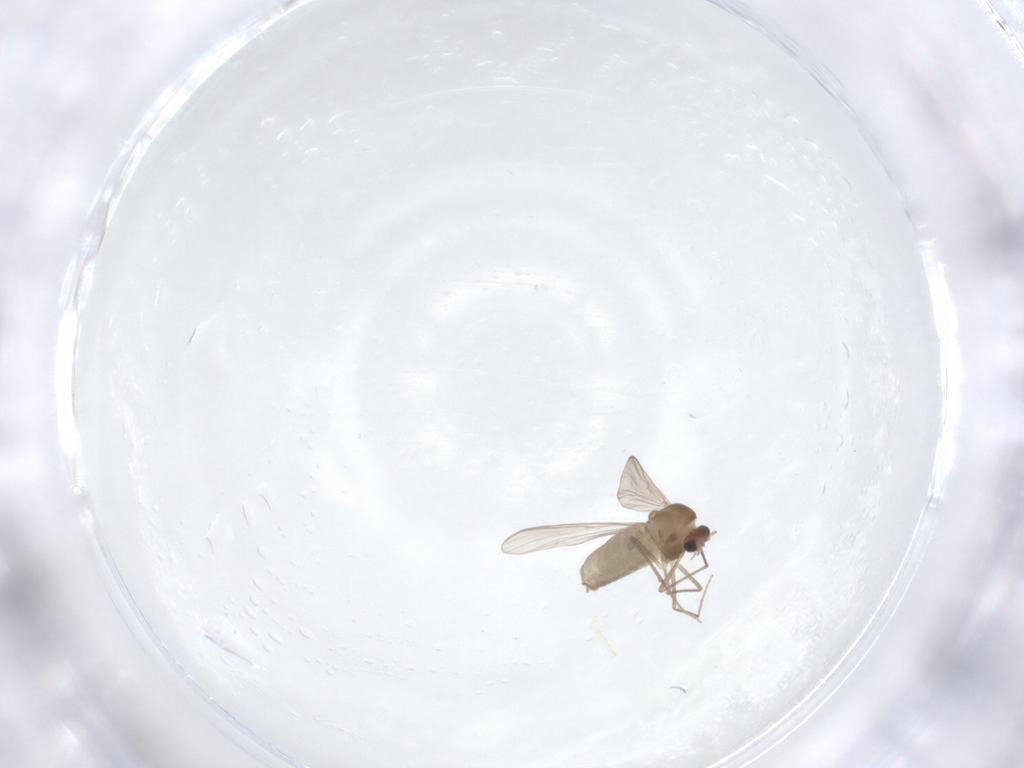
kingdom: Animalia
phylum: Arthropoda
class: Insecta
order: Diptera
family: Chironomidae
